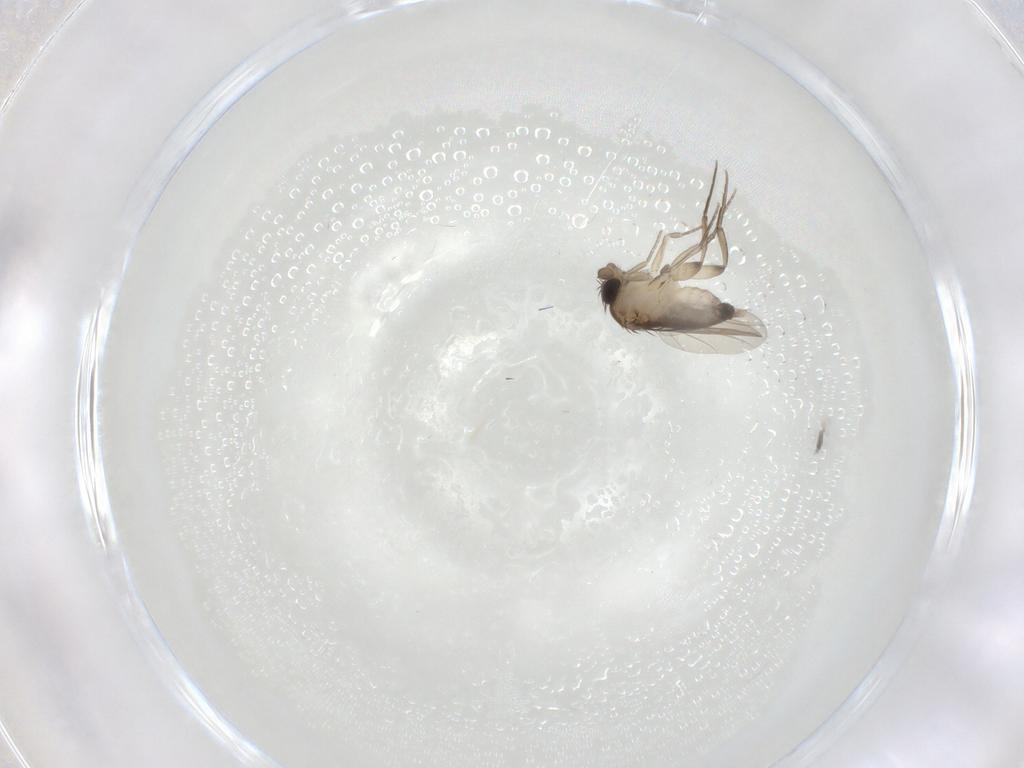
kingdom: Animalia
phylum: Arthropoda
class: Insecta
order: Diptera
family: Phoridae
